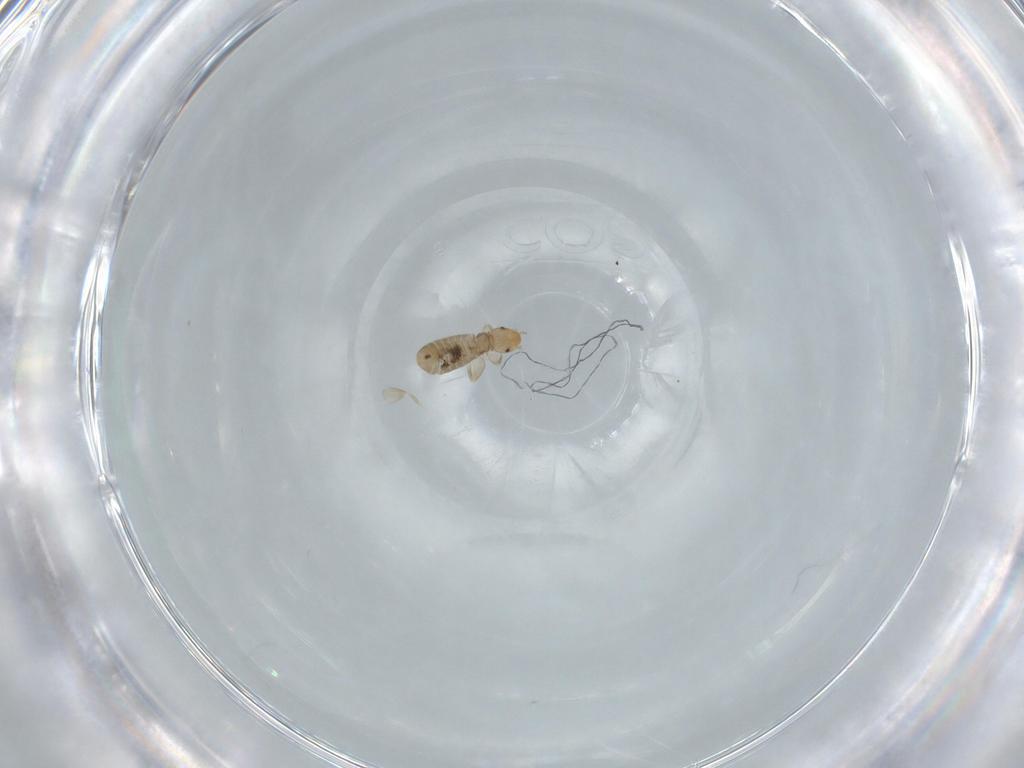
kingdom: Animalia
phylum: Arthropoda
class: Insecta
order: Psocodea
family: Liposcelididae
